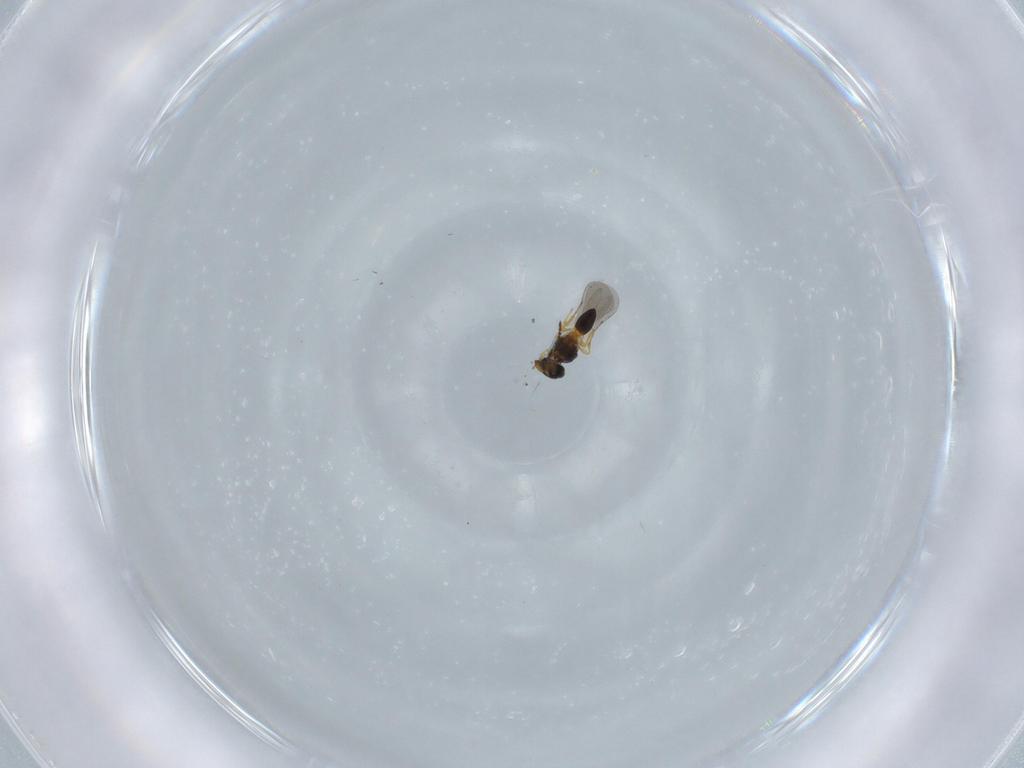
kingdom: Animalia
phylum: Arthropoda
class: Insecta
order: Hymenoptera
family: Platygastridae
